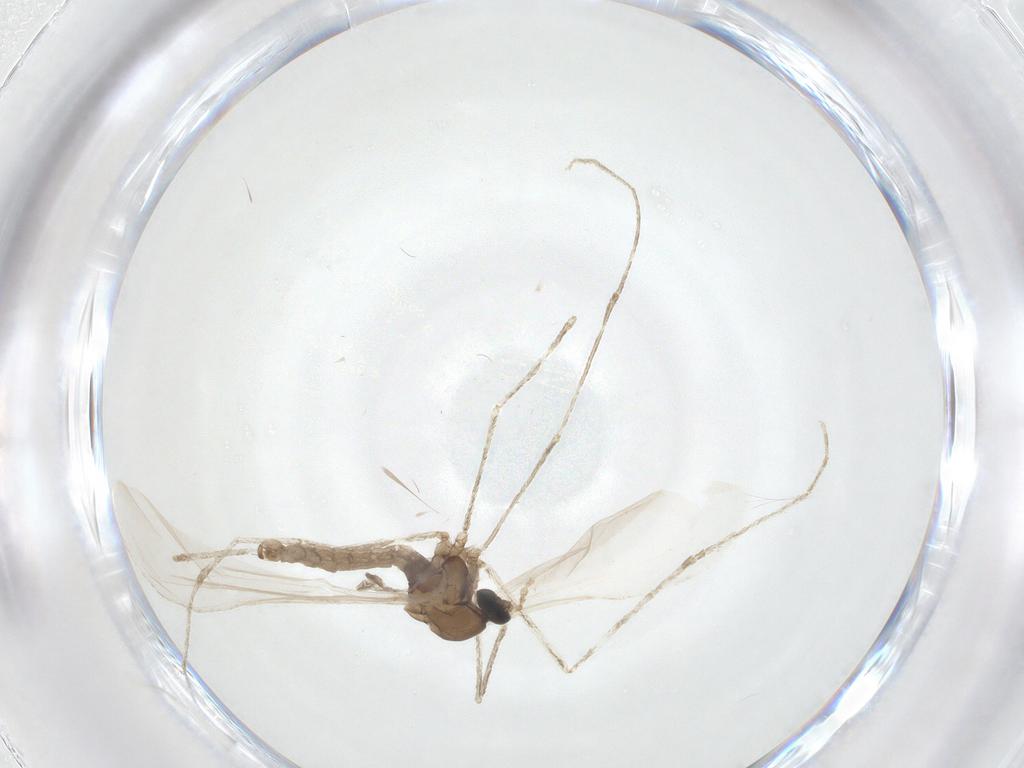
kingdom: Animalia
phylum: Arthropoda
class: Insecta
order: Diptera
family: Cecidomyiidae
